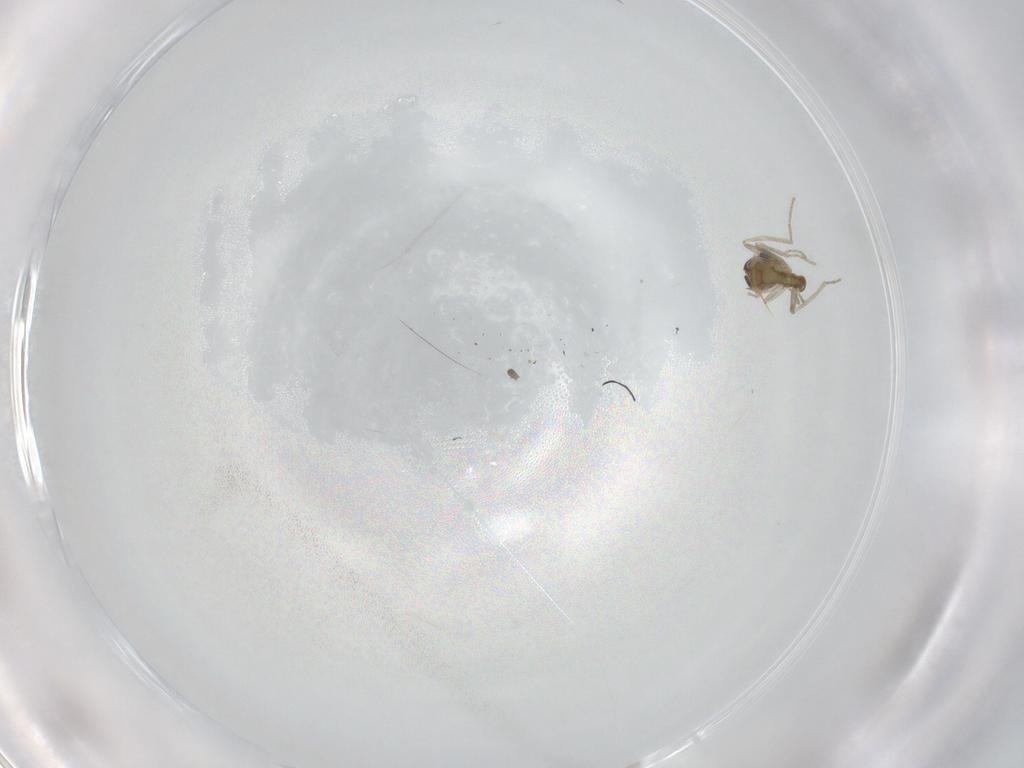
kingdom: Animalia
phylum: Arthropoda
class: Insecta
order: Diptera
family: Cecidomyiidae
